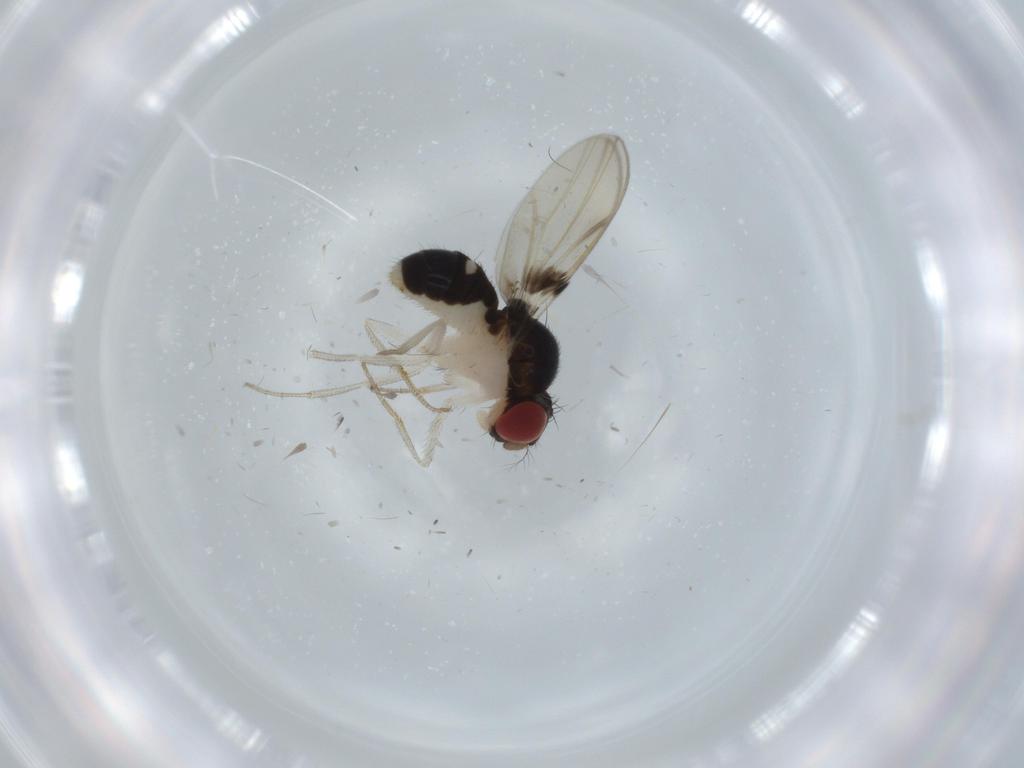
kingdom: Animalia
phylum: Arthropoda
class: Insecta
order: Diptera
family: Drosophilidae
